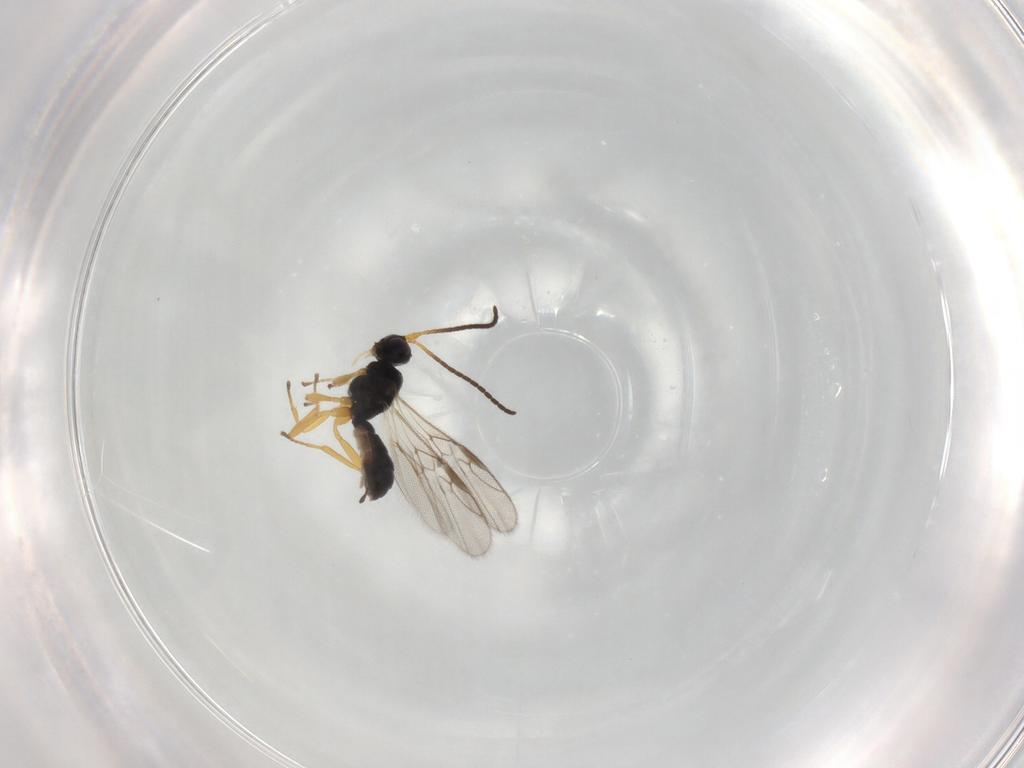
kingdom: Animalia
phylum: Arthropoda
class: Insecta
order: Hymenoptera
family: Braconidae
